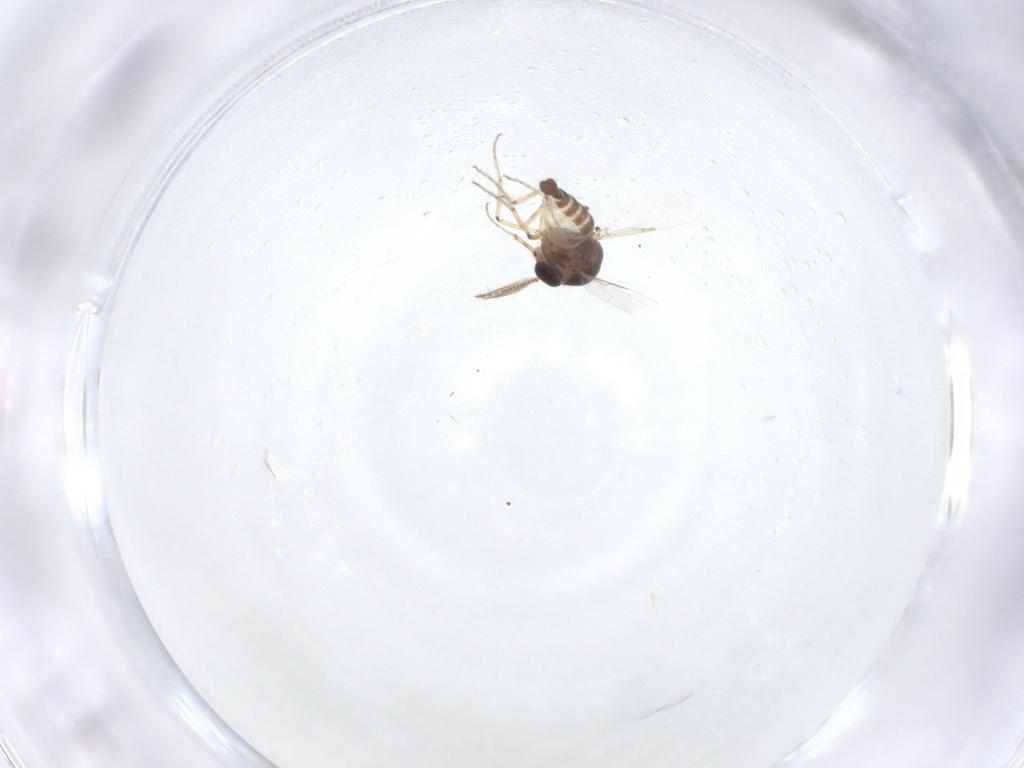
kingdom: Animalia
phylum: Arthropoda
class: Insecta
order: Diptera
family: Ceratopogonidae
